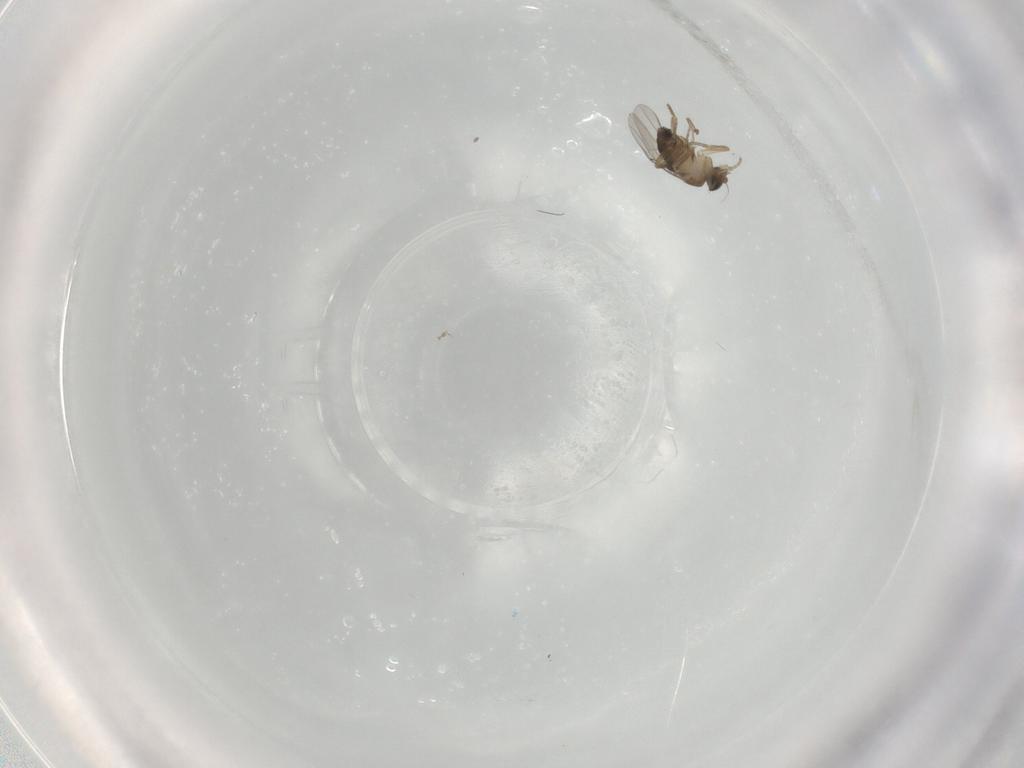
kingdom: Animalia
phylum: Arthropoda
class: Insecta
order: Diptera
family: Phoridae
